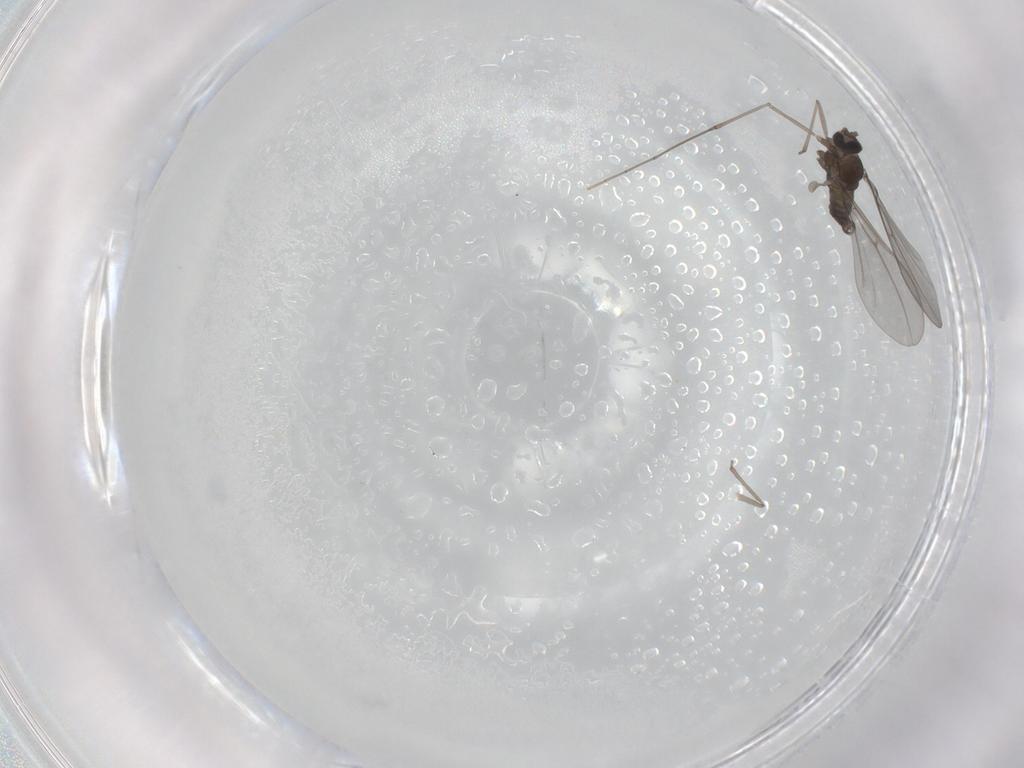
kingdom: Animalia
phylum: Arthropoda
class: Insecta
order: Diptera
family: Cecidomyiidae
